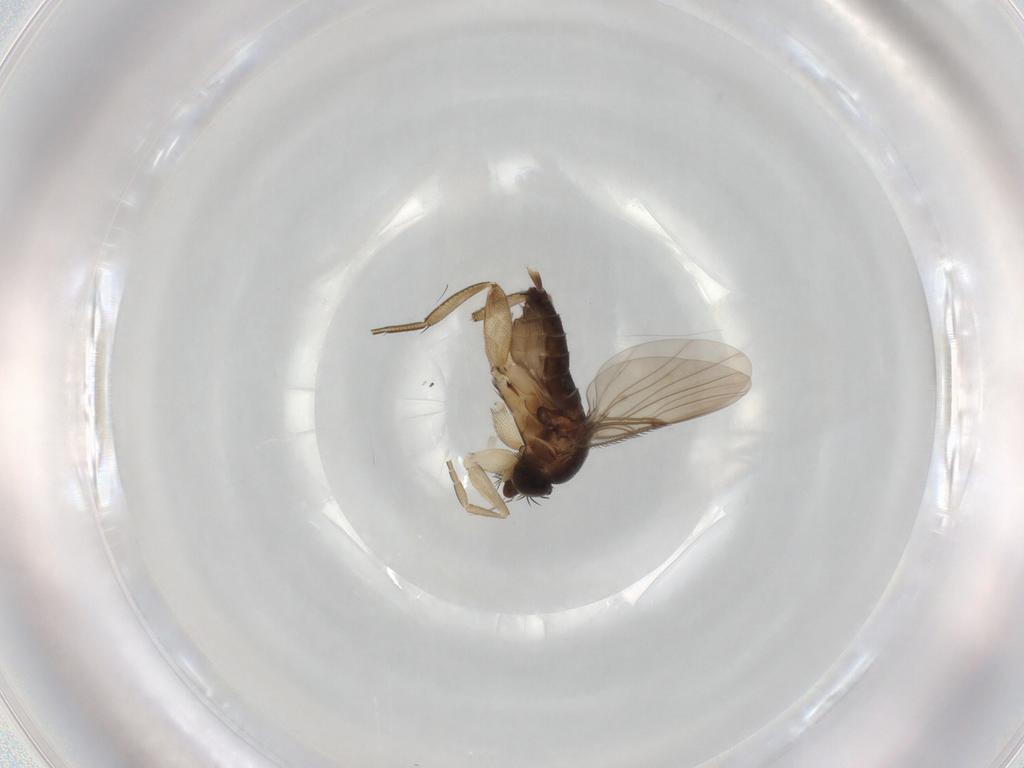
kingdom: Animalia
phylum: Arthropoda
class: Insecta
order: Diptera
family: Phoridae
